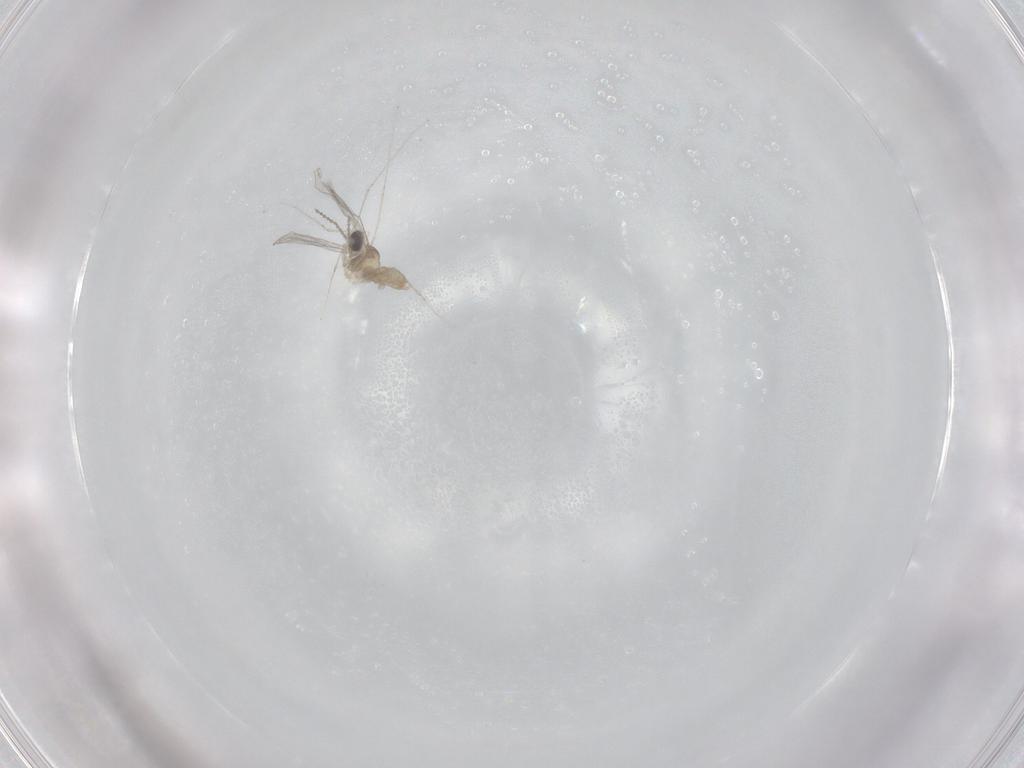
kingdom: Animalia
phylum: Arthropoda
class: Insecta
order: Diptera
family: Cecidomyiidae
